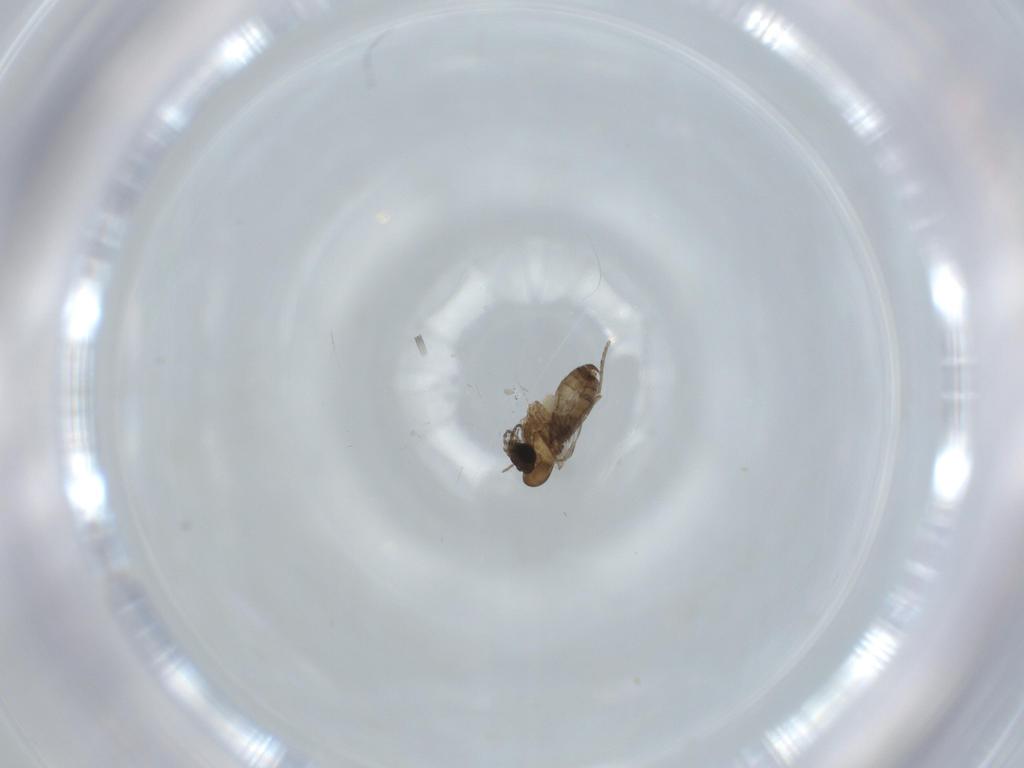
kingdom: Animalia
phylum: Arthropoda
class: Insecta
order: Diptera
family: Psychodidae
